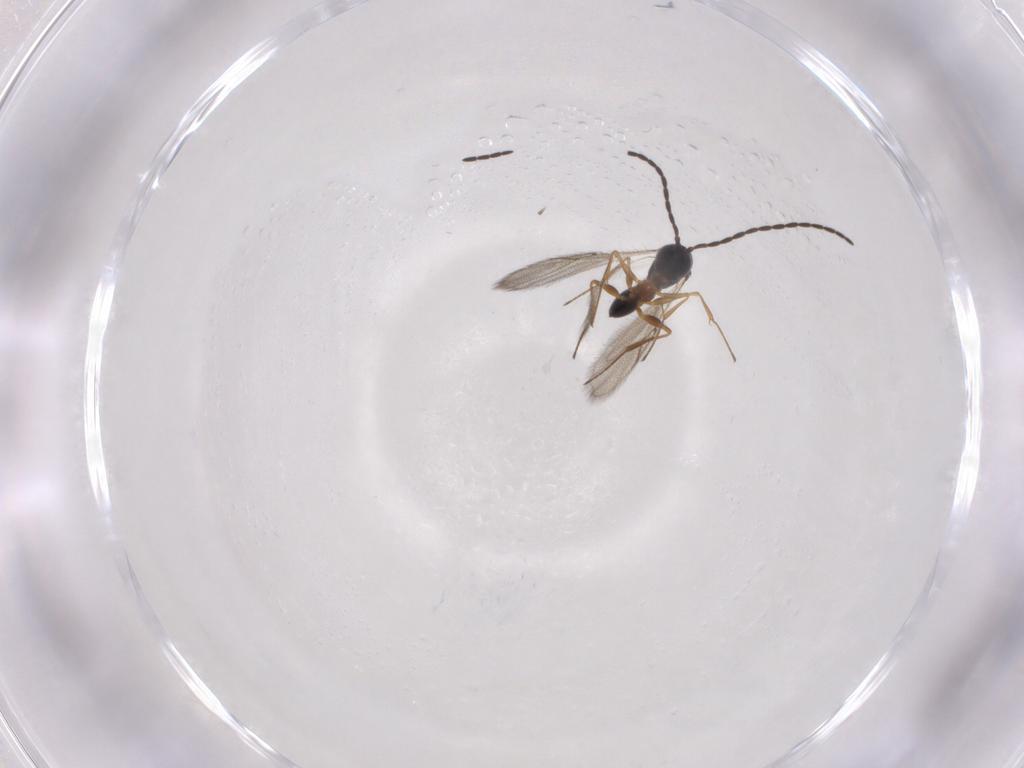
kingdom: Animalia
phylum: Arthropoda
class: Insecta
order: Hymenoptera
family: Figitidae
